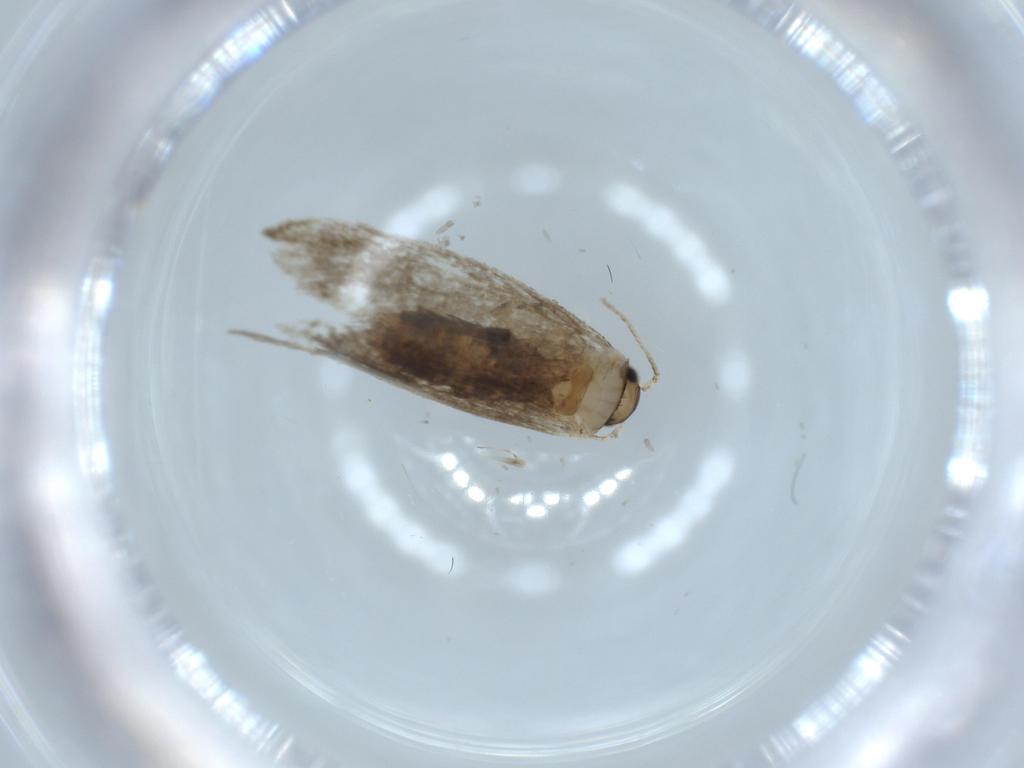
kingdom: Animalia
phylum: Arthropoda
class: Insecta
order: Lepidoptera
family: Tineidae
